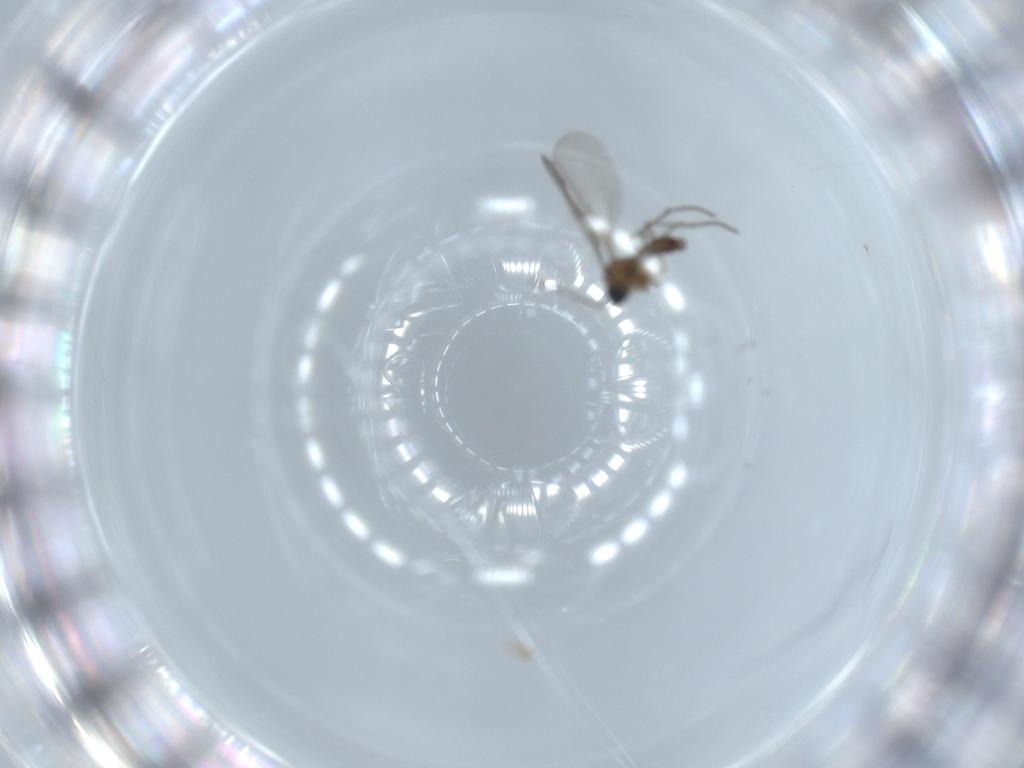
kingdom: Animalia
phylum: Arthropoda
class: Insecta
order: Diptera
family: Sciaridae
